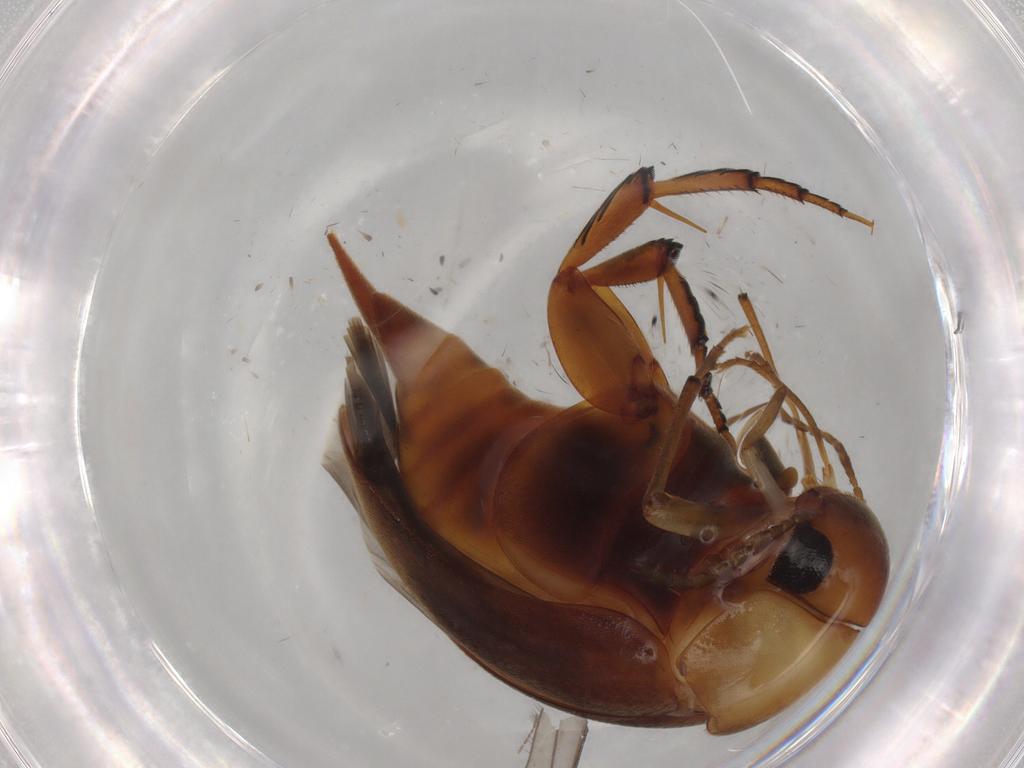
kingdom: Animalia
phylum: Arthropoda
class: Insecta
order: Coleoptera
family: Mordellidae
